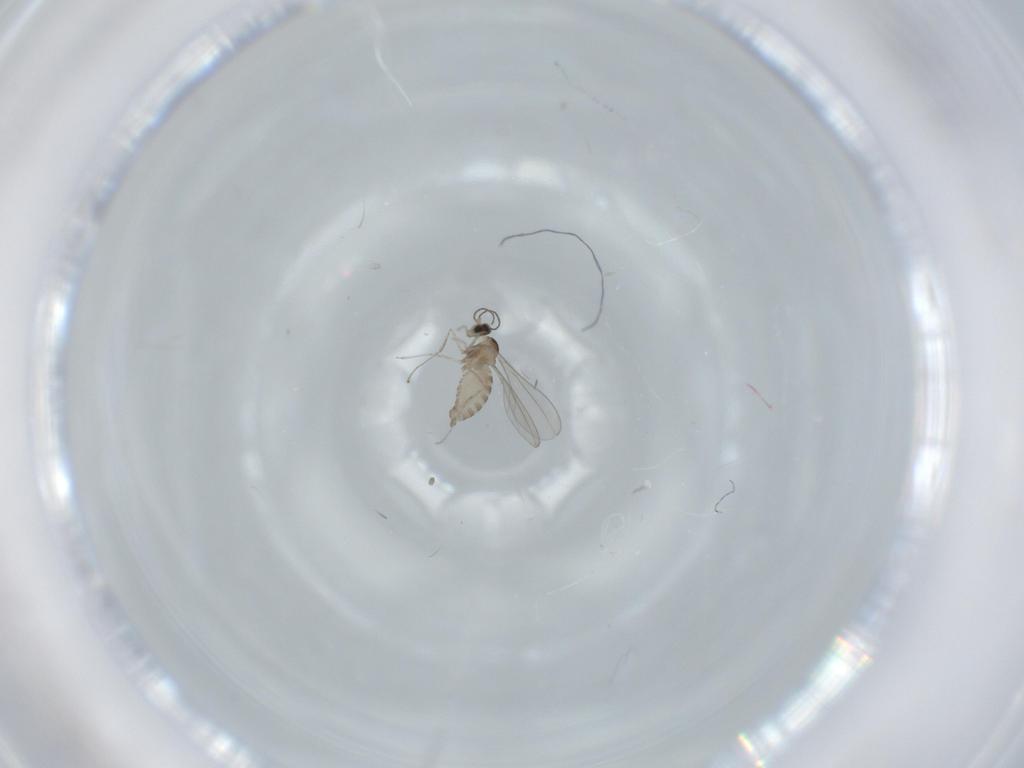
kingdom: Animalia
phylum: Arthropoda
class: Insecta
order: Diptera
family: Cecidomyiidae
